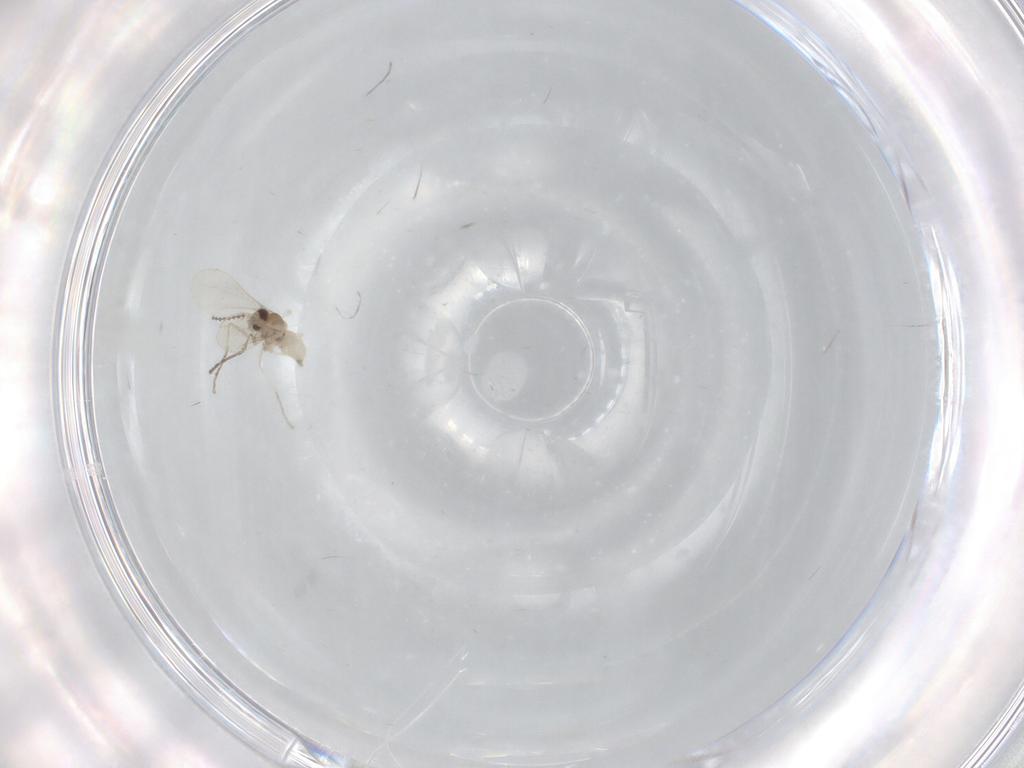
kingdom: Animalia
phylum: Arthropoda
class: Insecta
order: Diptera
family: Cecidomyiidae
